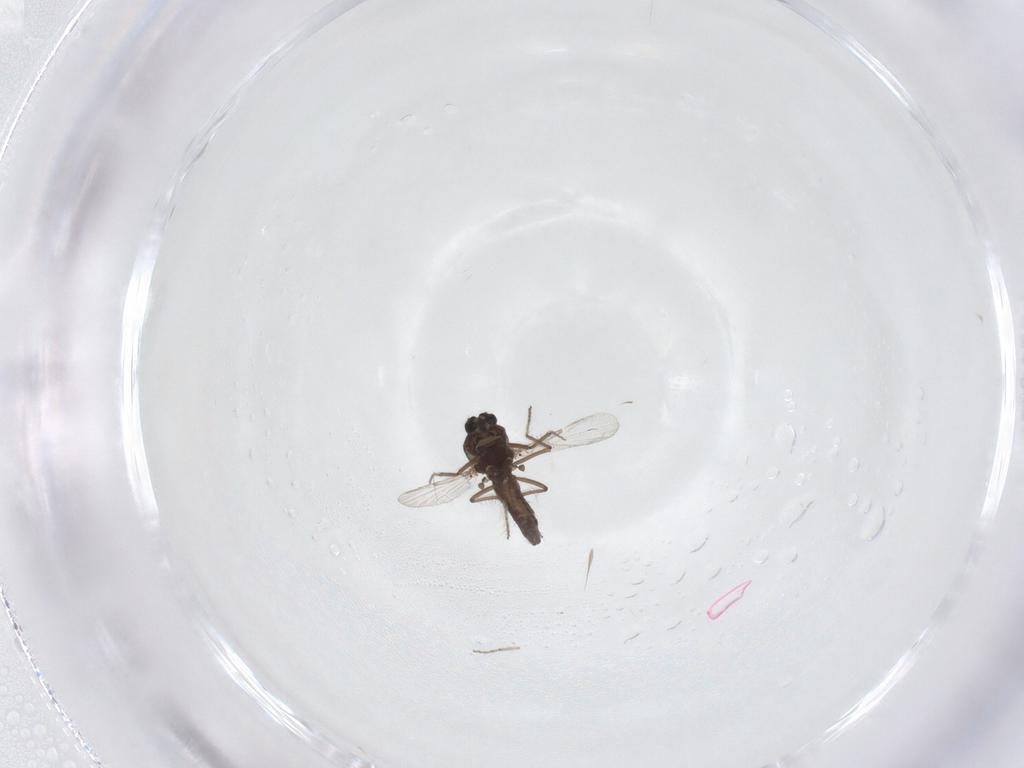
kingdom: Animalia
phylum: Arthropoda
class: Insecta
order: Diptera
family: Ceratopogonidae
